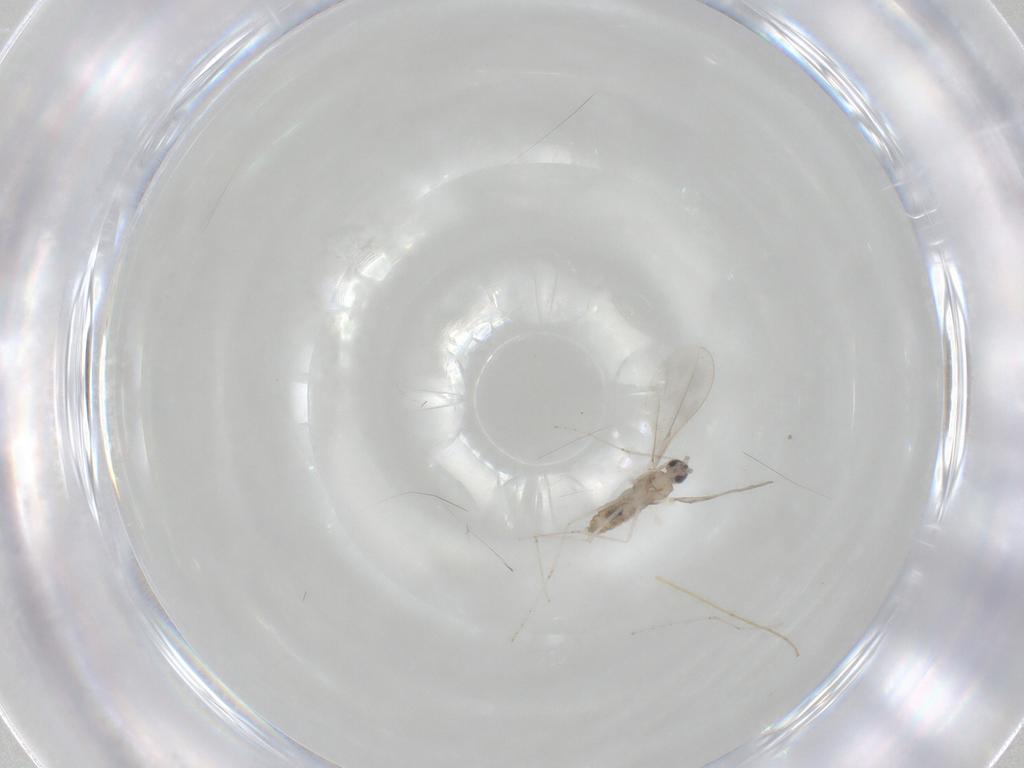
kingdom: Animalia
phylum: Arthropoda
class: Insecta
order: Diptera
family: Cecidomyiidae
